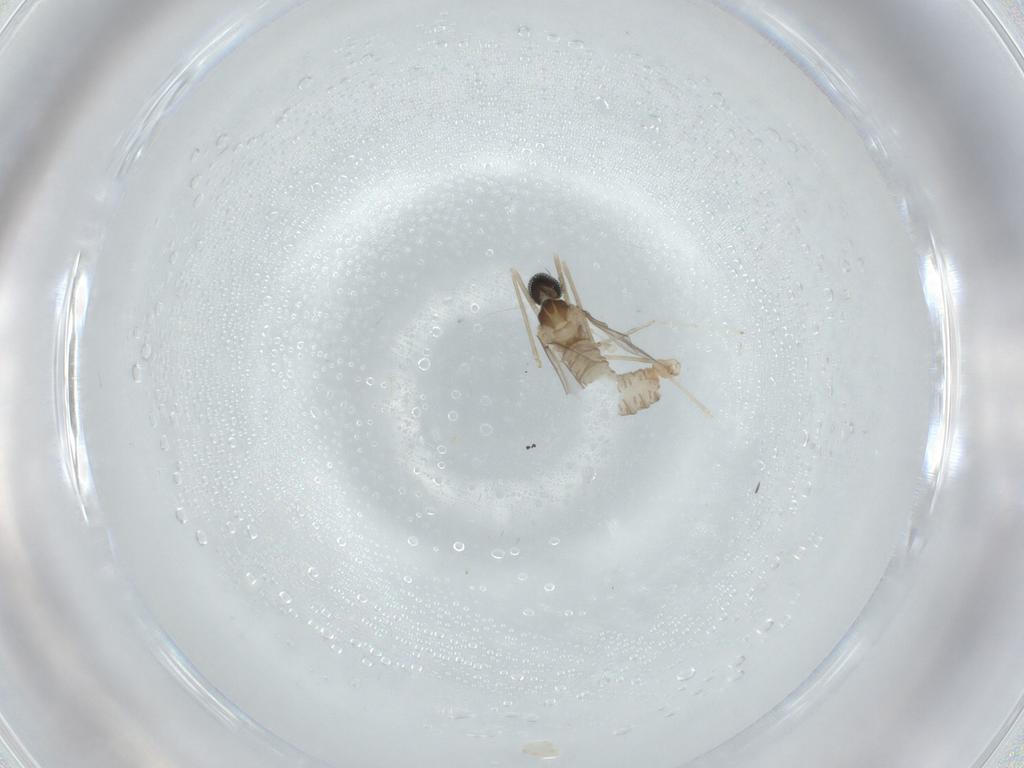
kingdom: Animalia
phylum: Arthropoda
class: Insecta
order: Diptera
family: Cecidomyiidae
